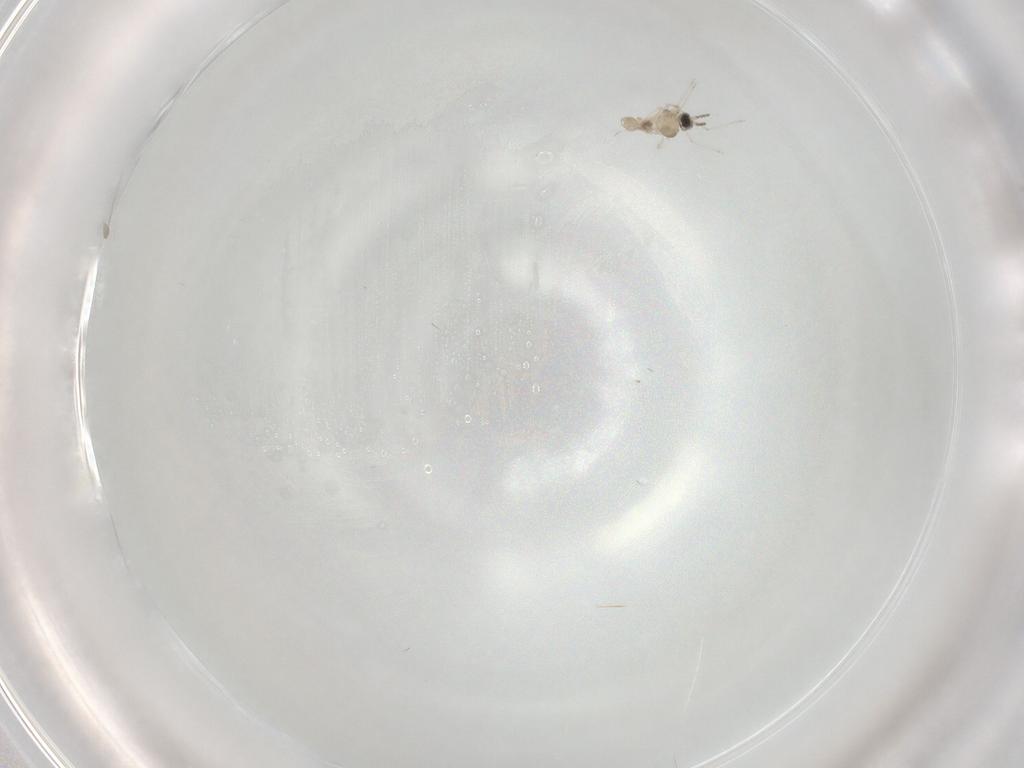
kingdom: Animalia
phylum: Arthropoda
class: Insecta
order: Diptera
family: Cecidomyiidae
